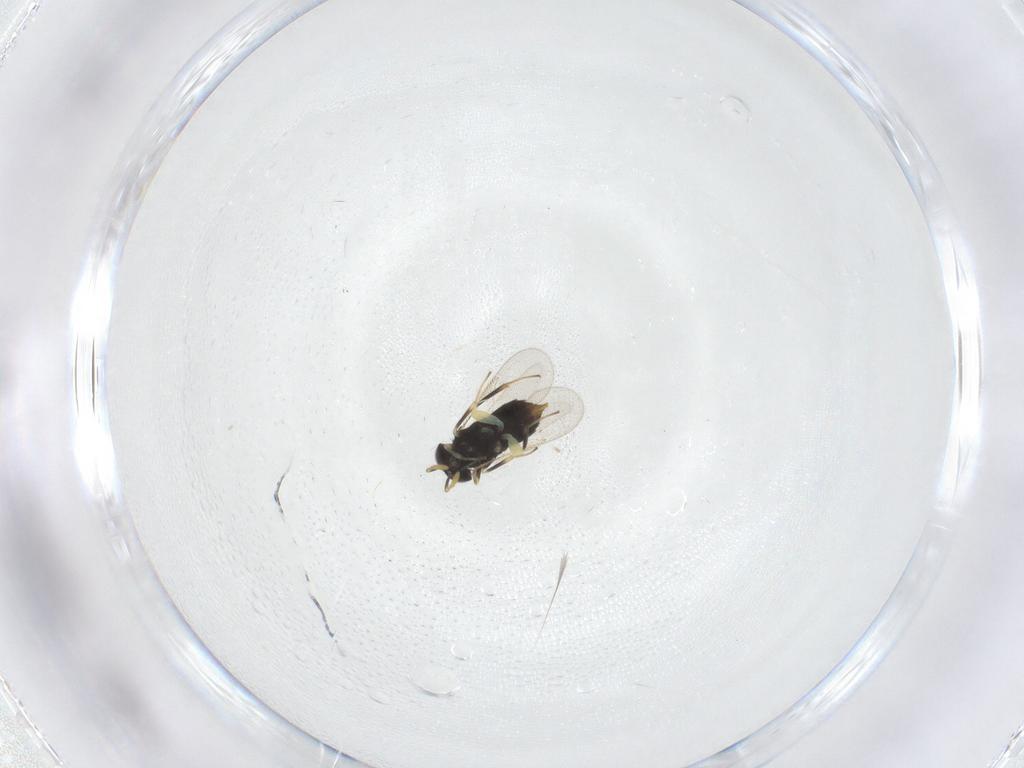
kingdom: Animalia
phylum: Arthropoda
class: Insecta
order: Hymenoptera
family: Aphelinidae
